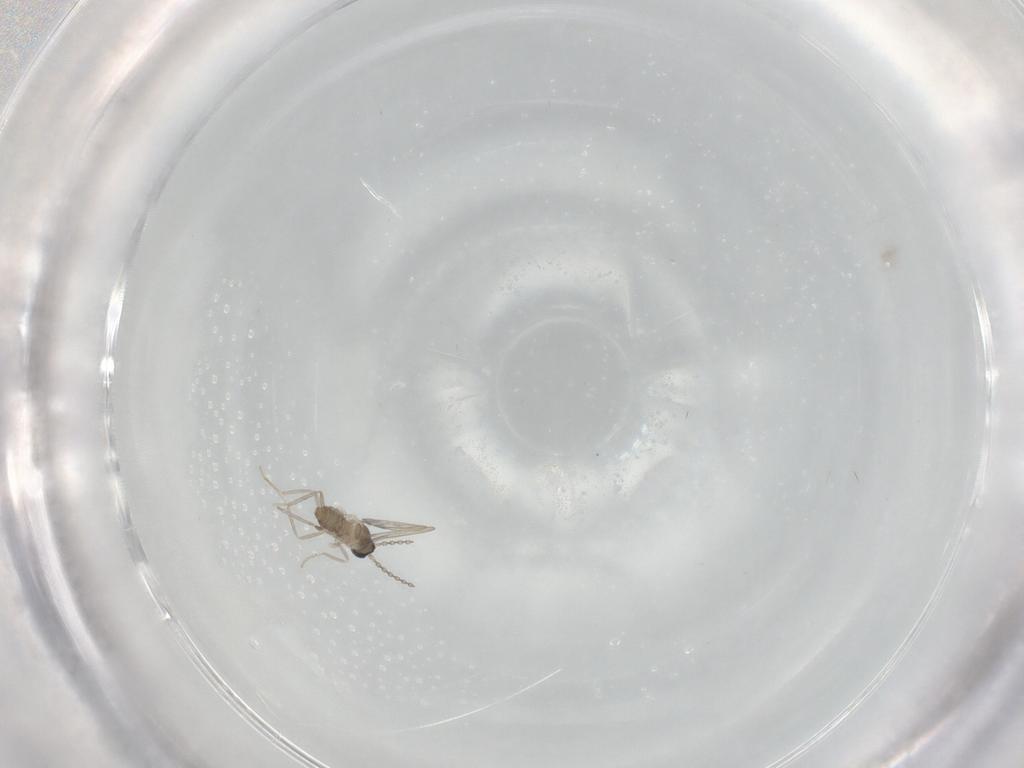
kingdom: Animalia
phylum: Arthropoda
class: Insecta
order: Diptera
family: Cecidomyiidae
